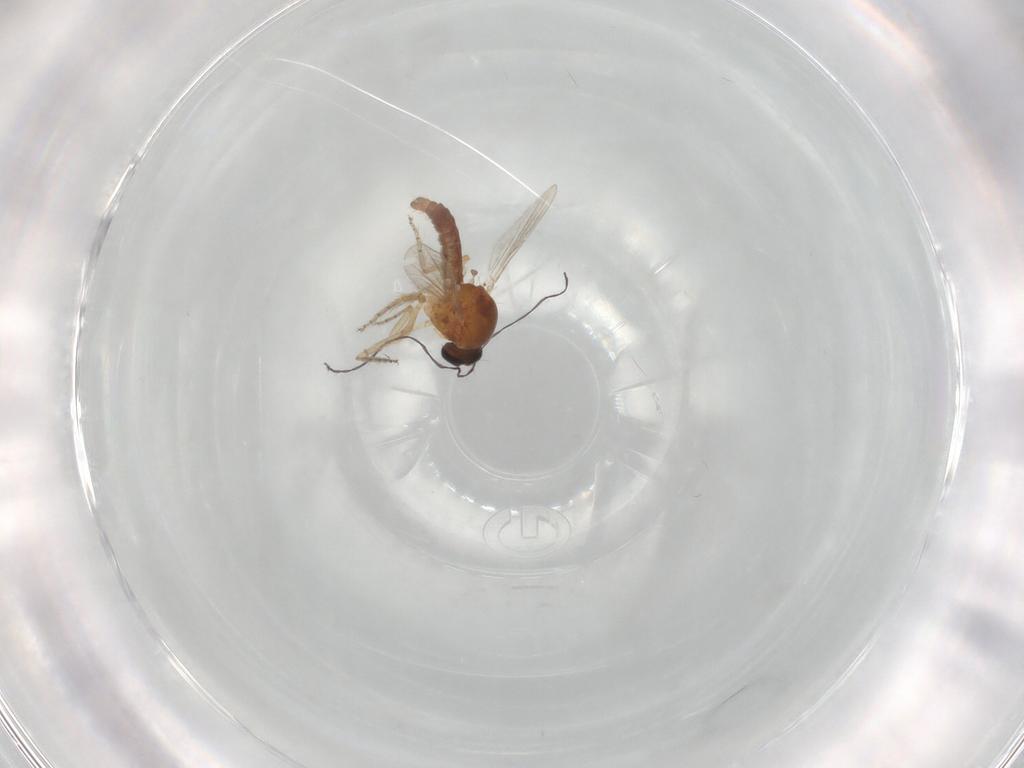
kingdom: Animalia
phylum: Arthropoda
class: Insecta
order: Diptera
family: Ceratopogonidae
